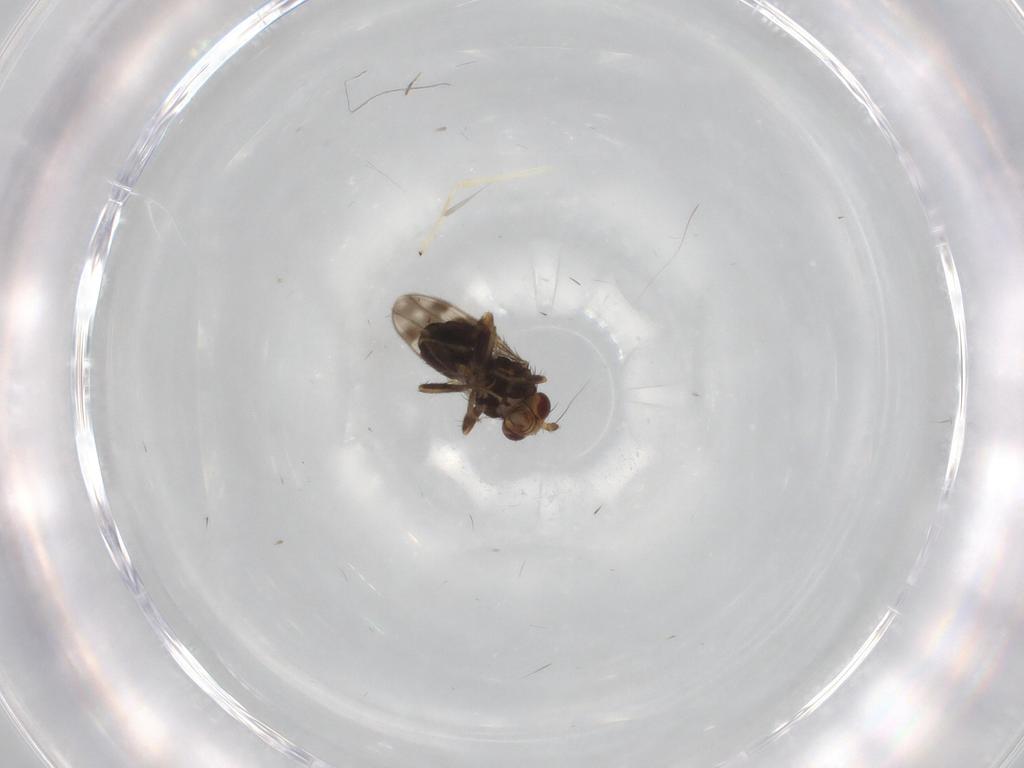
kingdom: Animalia
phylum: Arthropoda
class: Insecta
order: Diptera
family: Sphaeroceridae
